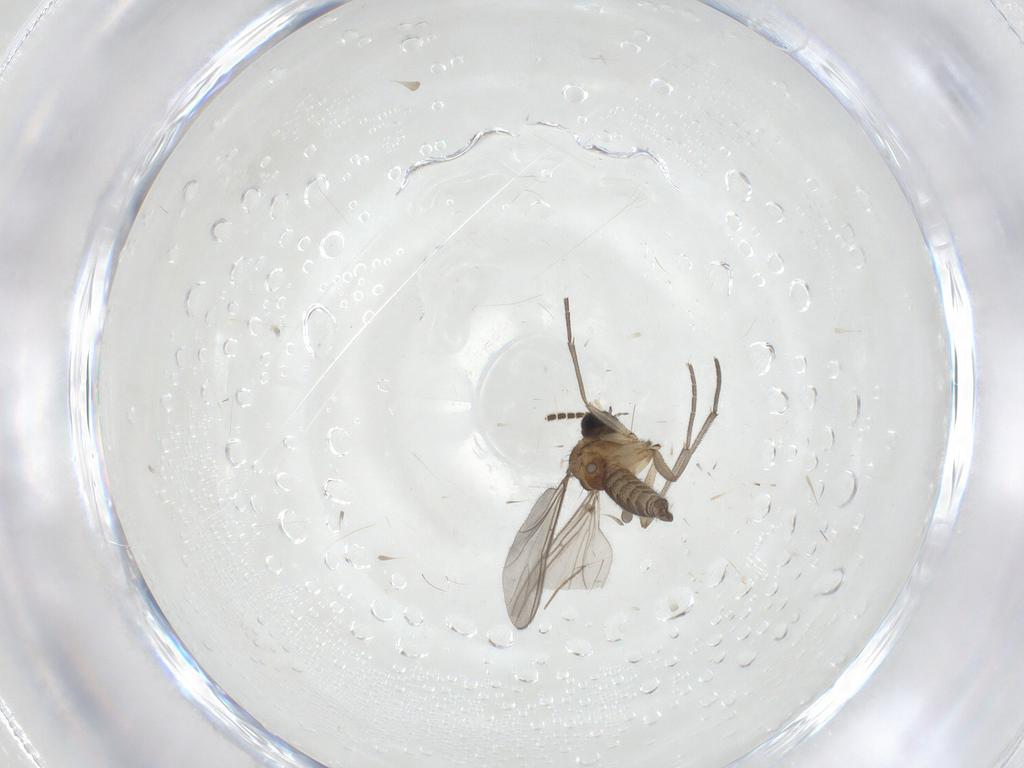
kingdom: Animalia
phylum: Arthropoda
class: Insecta
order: Diptera
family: Sciaridae
